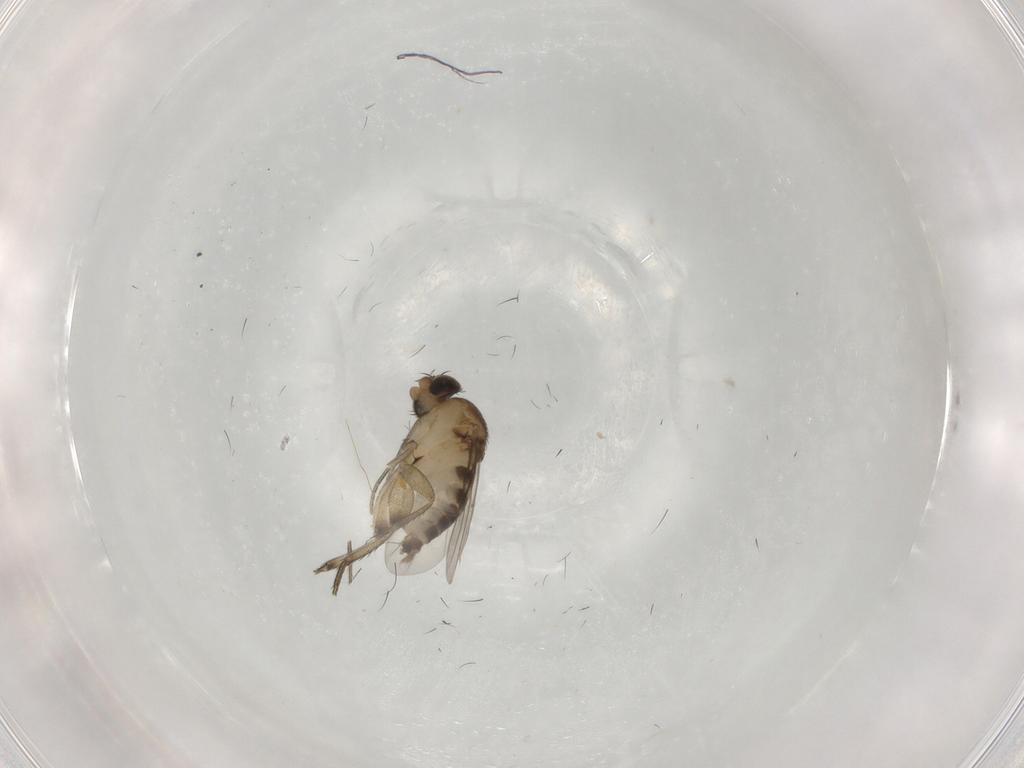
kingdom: Animalia
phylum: Arthropoda
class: Insecta
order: Diptera
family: Phoridae
